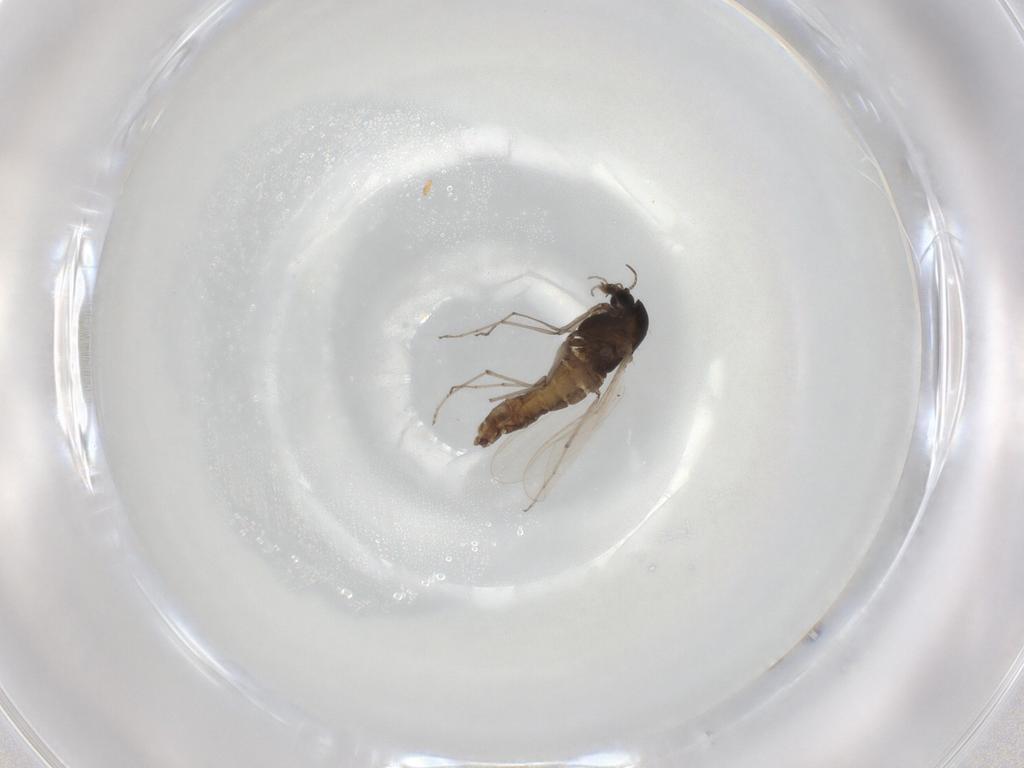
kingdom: Animalia
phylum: Arthropoda
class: Insecta
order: Diptera
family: Chironomidae
